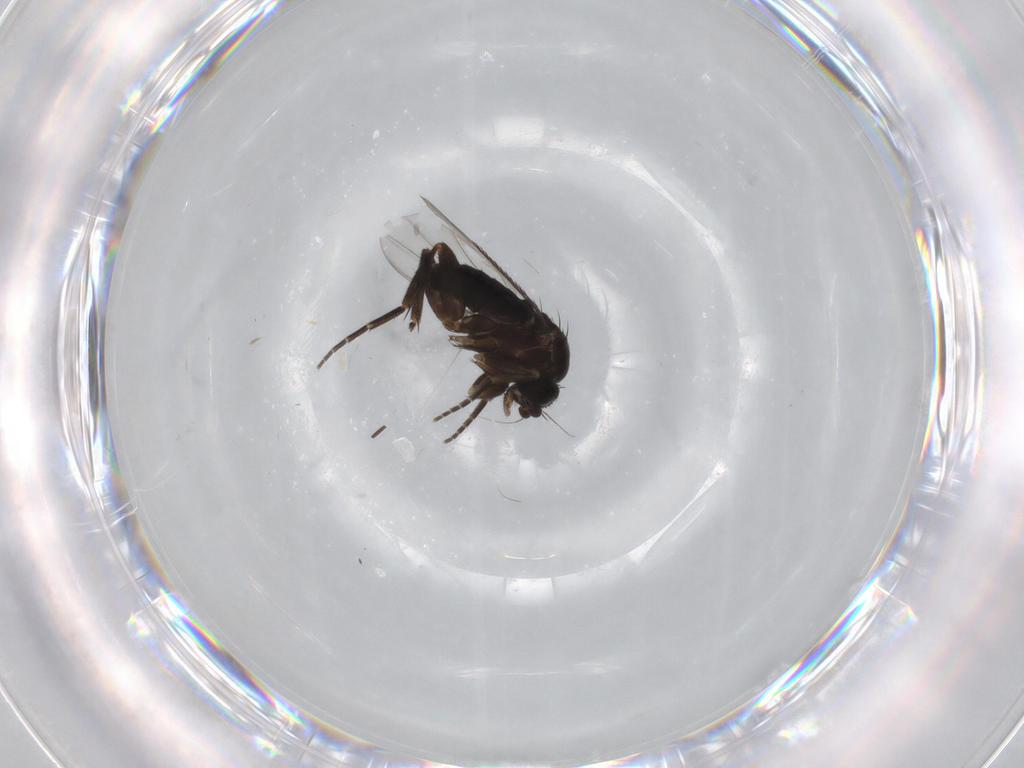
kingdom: Animalia
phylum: Arthropoda
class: Insecta
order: Diptera
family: Phoridae
